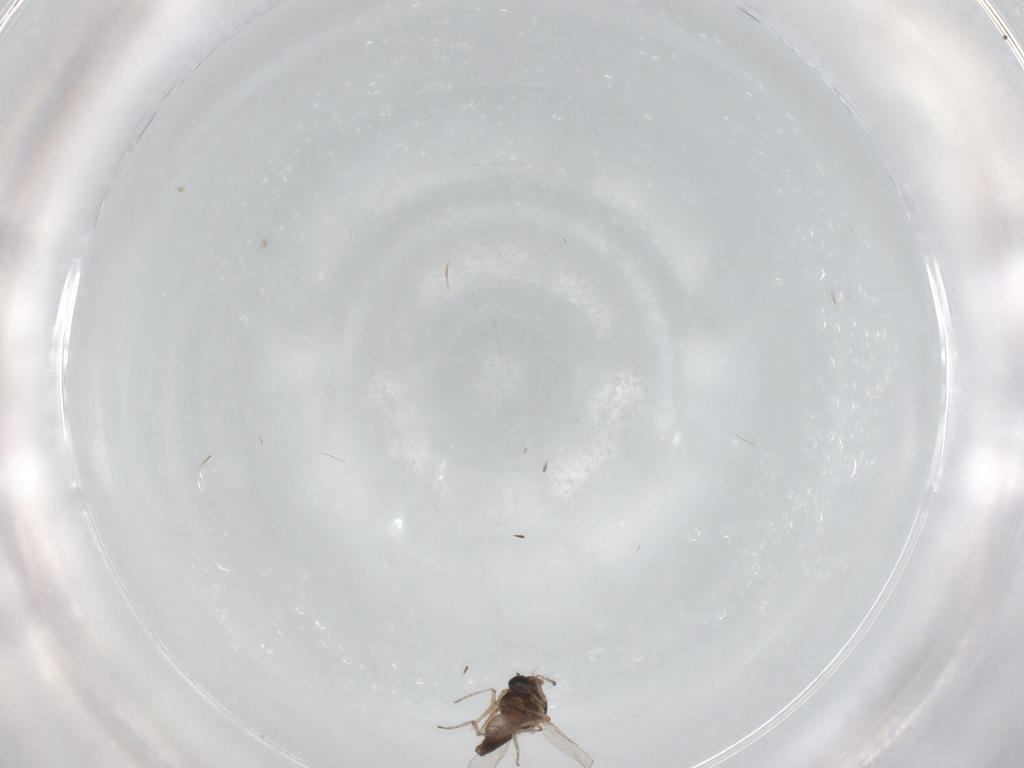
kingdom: Animalia
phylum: Arthropoda
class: Insecta
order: Diptera
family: Ceratopogonidae
